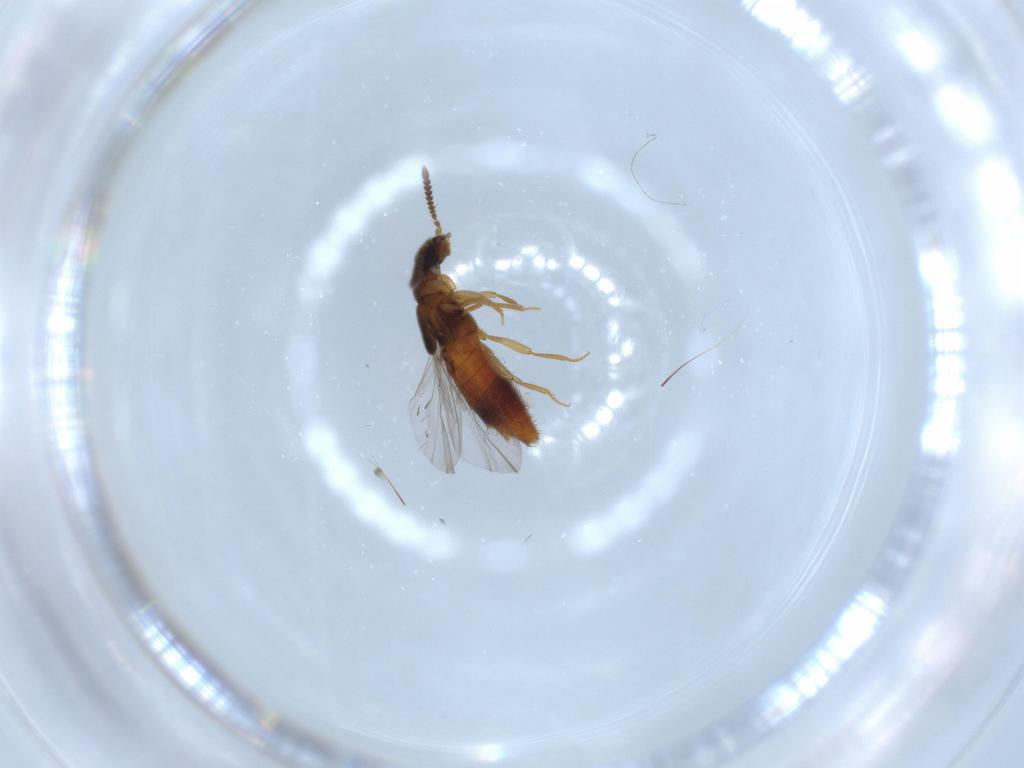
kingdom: Animalia
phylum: Arthropoda
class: Insecta
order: Coleoptera
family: Staphylinidae
